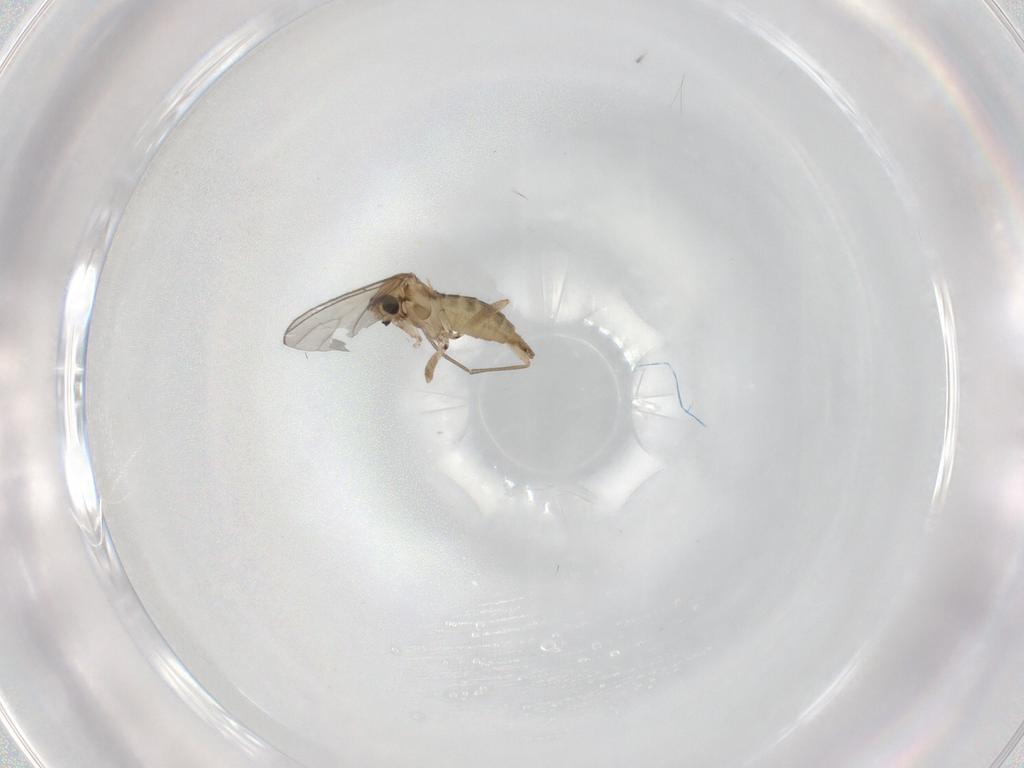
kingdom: Animalia
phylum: Arthropoda
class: Insecta
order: Diptera
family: Sciaridae
